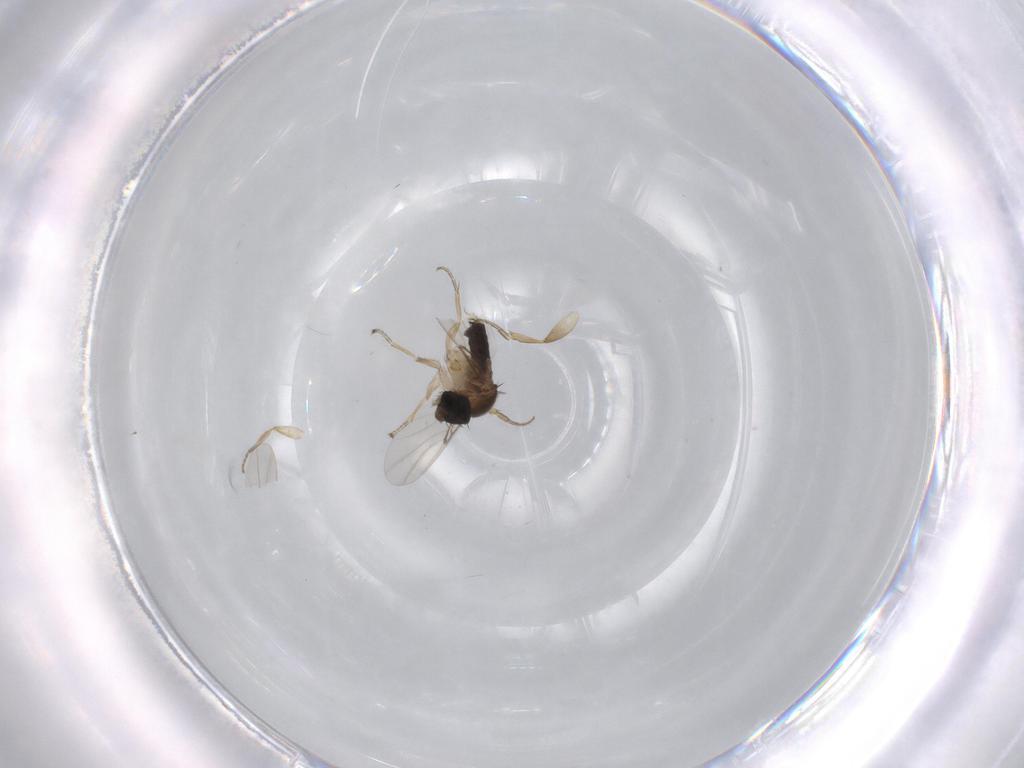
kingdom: Animalia
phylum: Arthropoda
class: Insecta
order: Diptera
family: Phoridae
